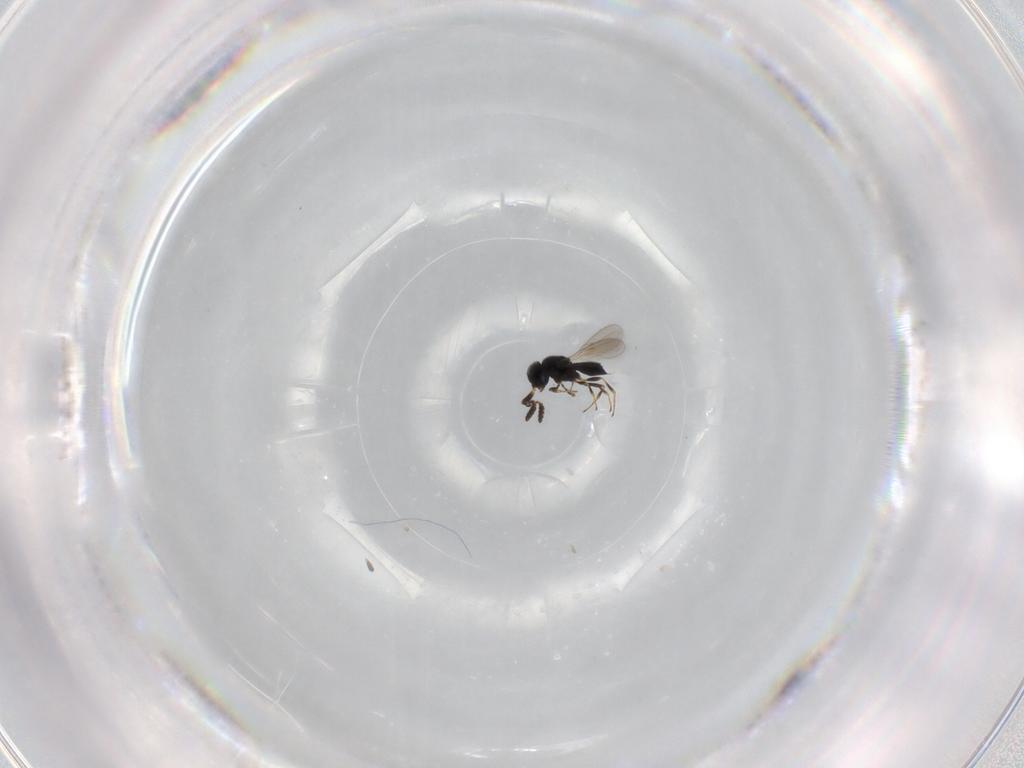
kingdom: Animalia
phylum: Arthropoda
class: Insecta
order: Hymenoptera
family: Scelionidae
